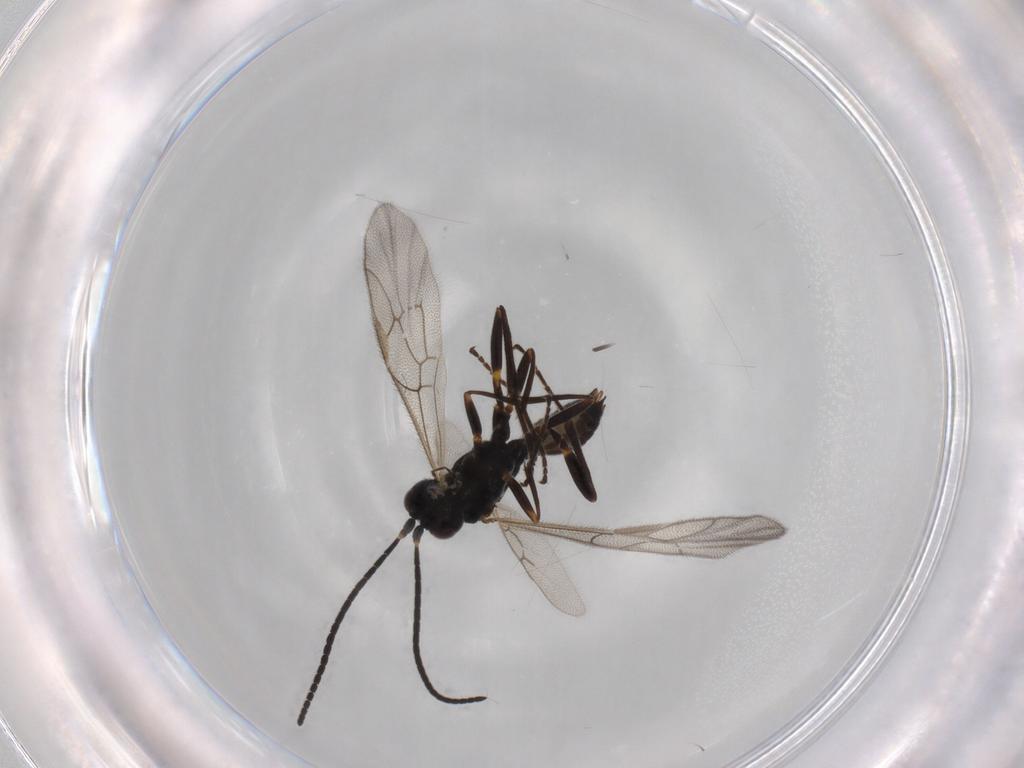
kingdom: Animalia
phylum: Arthropoda
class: Insecta
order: Hymenoptera
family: Ichneumonidae
